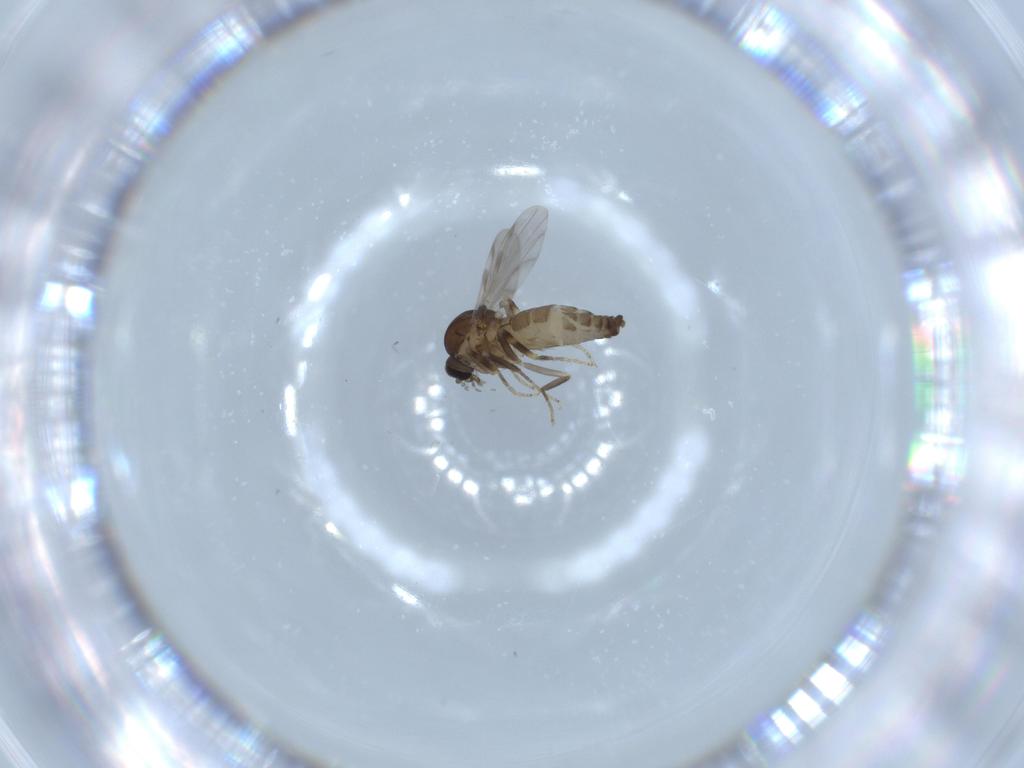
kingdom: Animalia
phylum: Arthropoda
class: Insecta
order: Diptera
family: Ceratopogonidae
